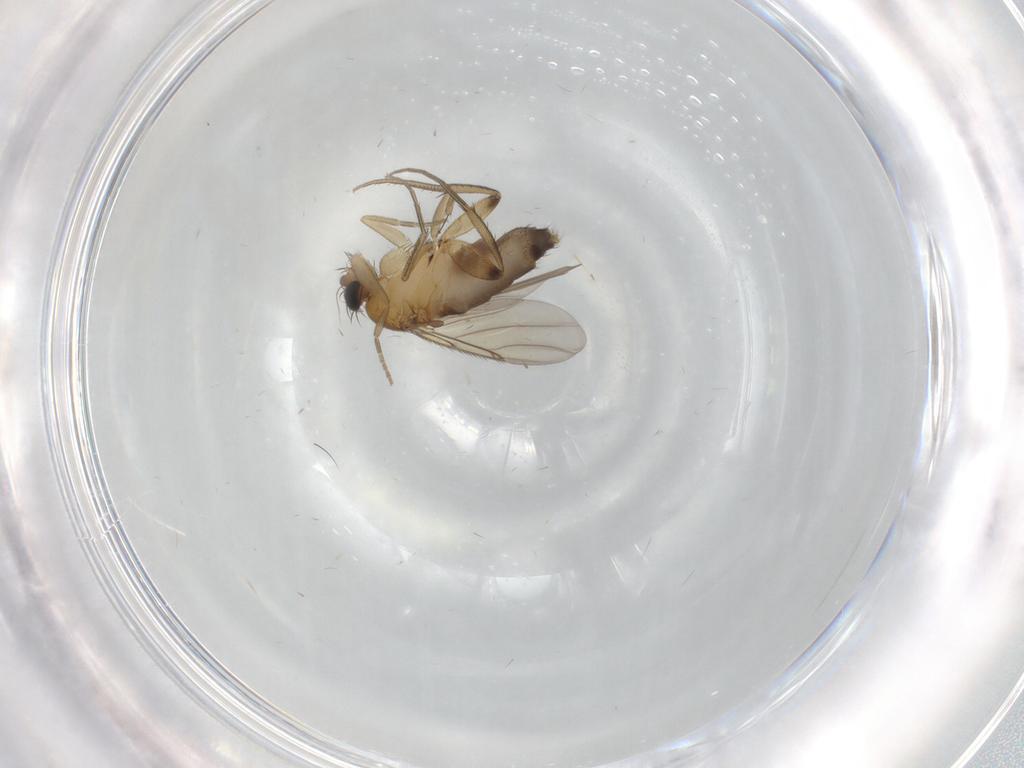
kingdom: Animalia
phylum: Arthropoda
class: Insecta
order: Diptera
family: Phoridae
